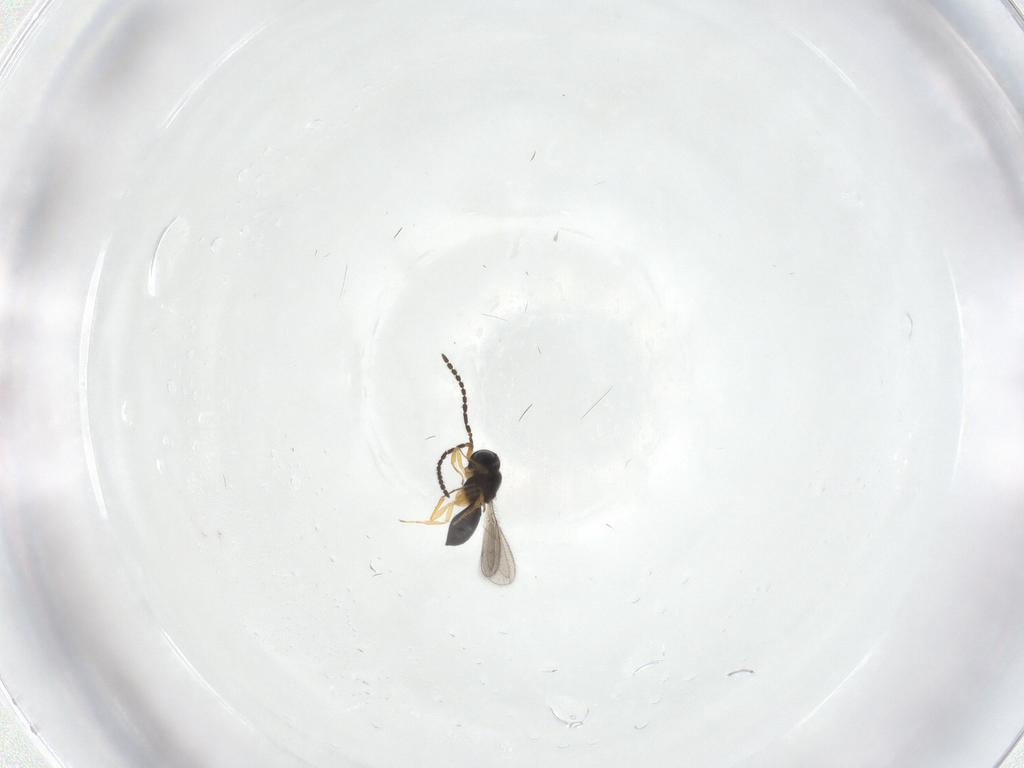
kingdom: Animalia
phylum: Arthropoda
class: Insecta
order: Hymenoptera
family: Scelionidae
